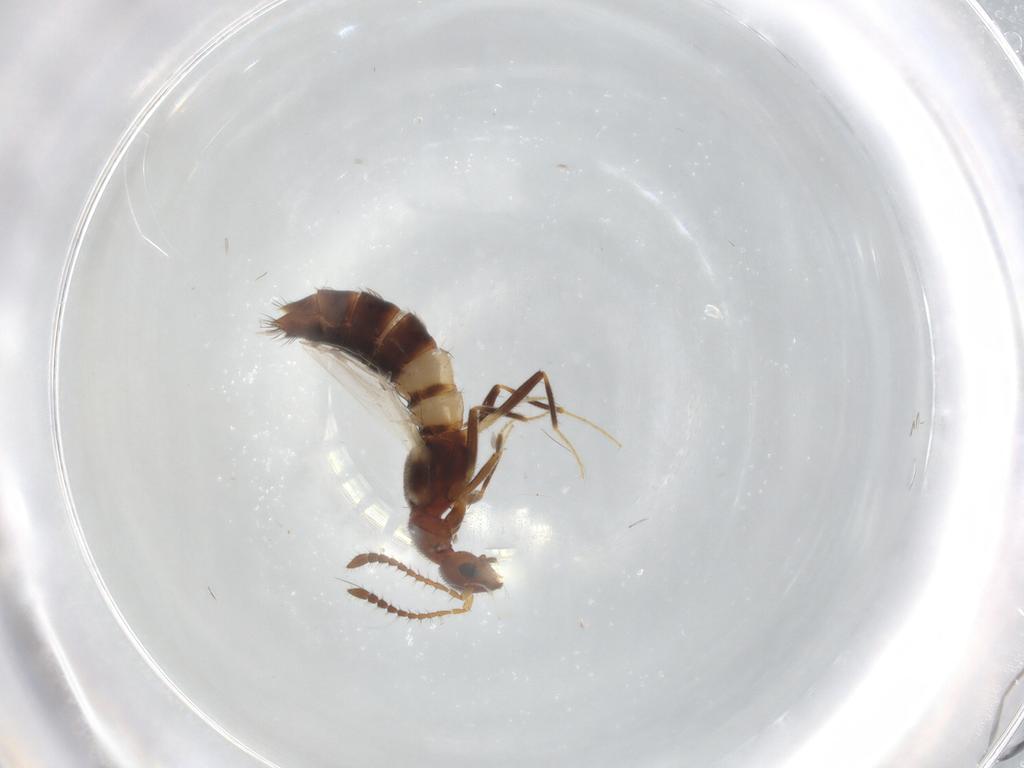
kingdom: Animalia
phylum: Arthropoda
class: Insecta
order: Coleoptera
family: Staphylinidae
